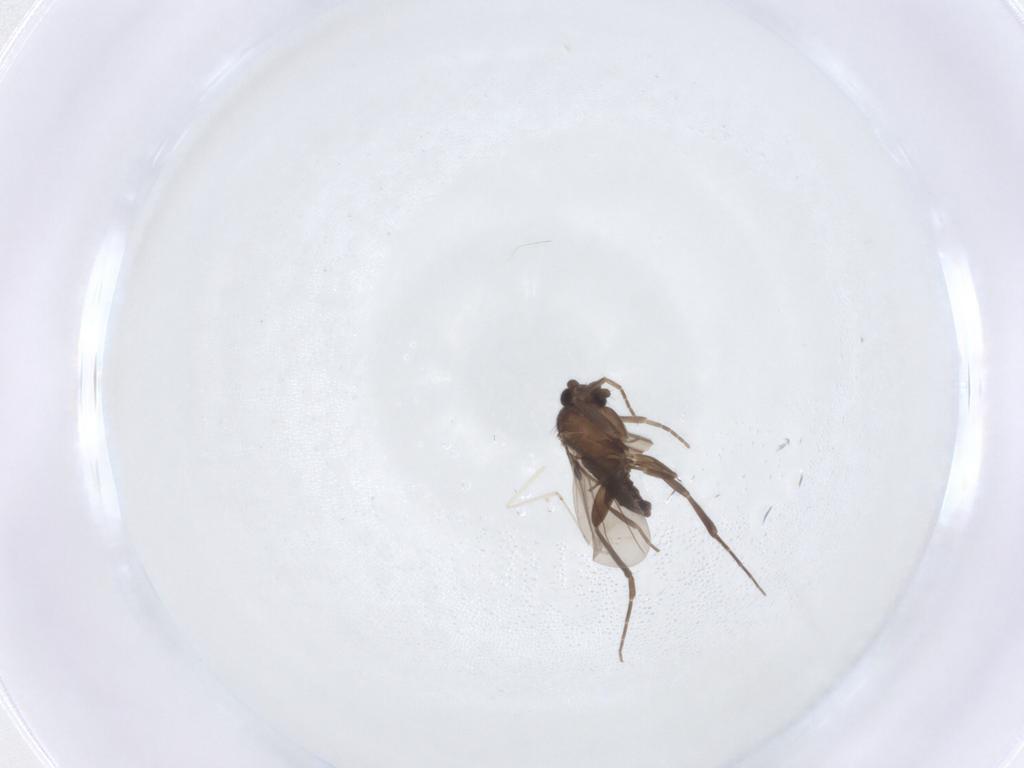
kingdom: Animalia
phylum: Arthropoda
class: Insecta
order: Diptera
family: Phoridae
